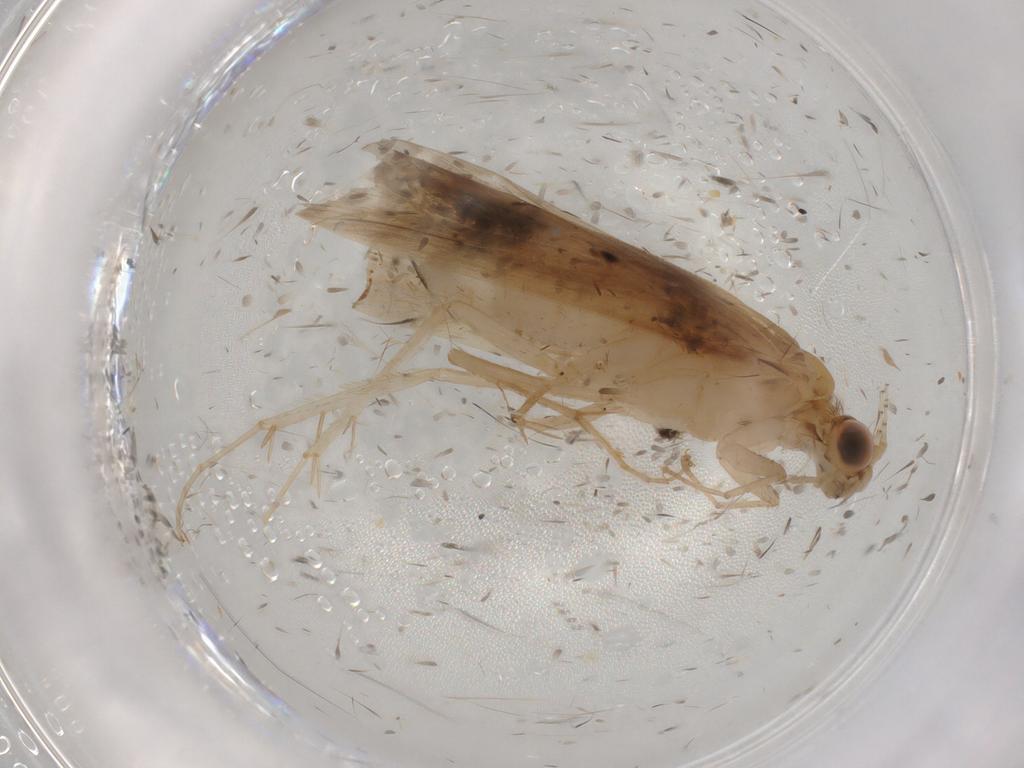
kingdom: Animalia
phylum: Arthropoda
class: Insecta
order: Trichoptera
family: Hydropsychidae
